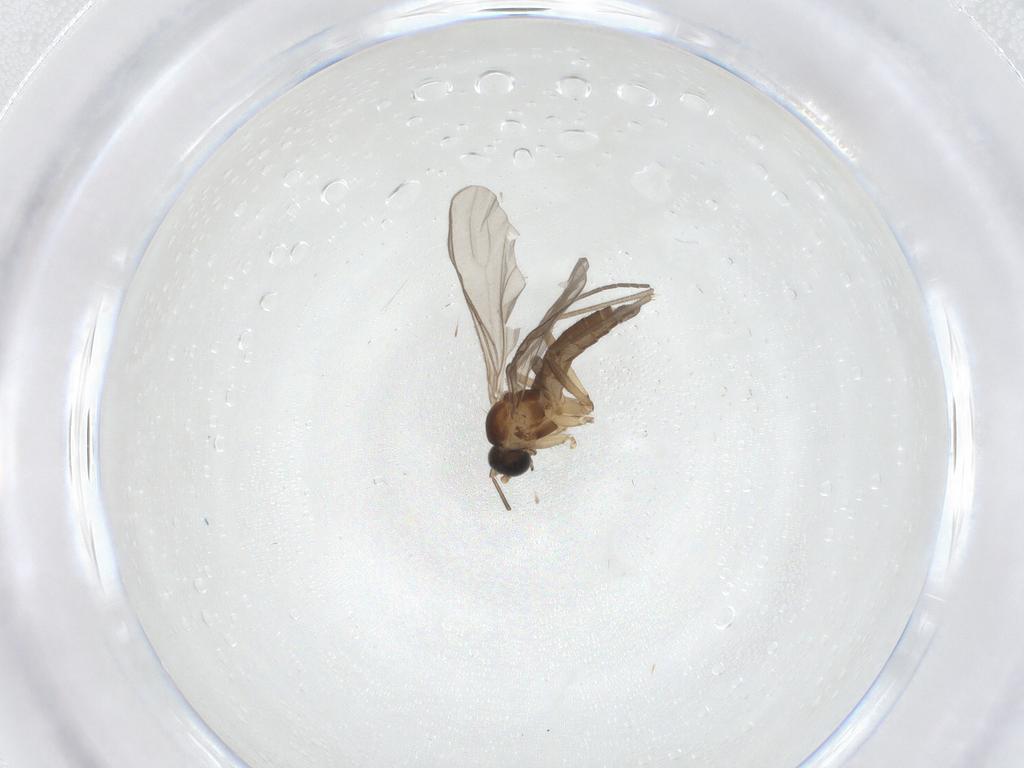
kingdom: Animalia
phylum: Arthropoda
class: Insecta
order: Diptera
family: Sciaridae
